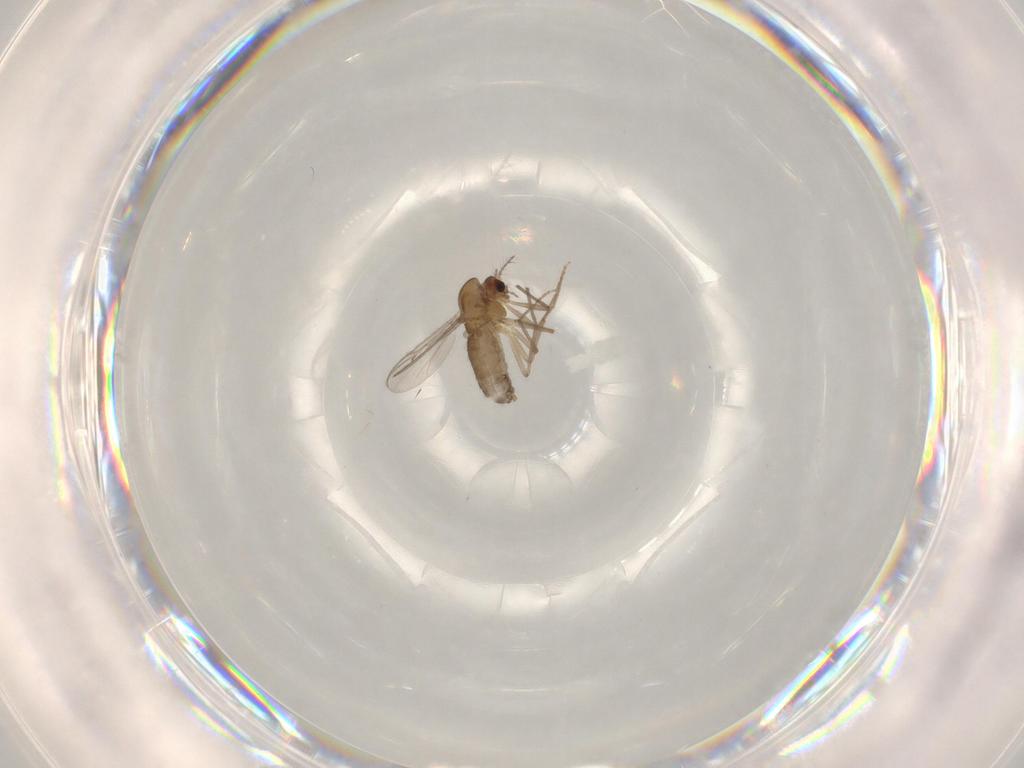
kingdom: Animalia
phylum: Arthropoda
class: Insecta
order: Diptera
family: Chironomidae
